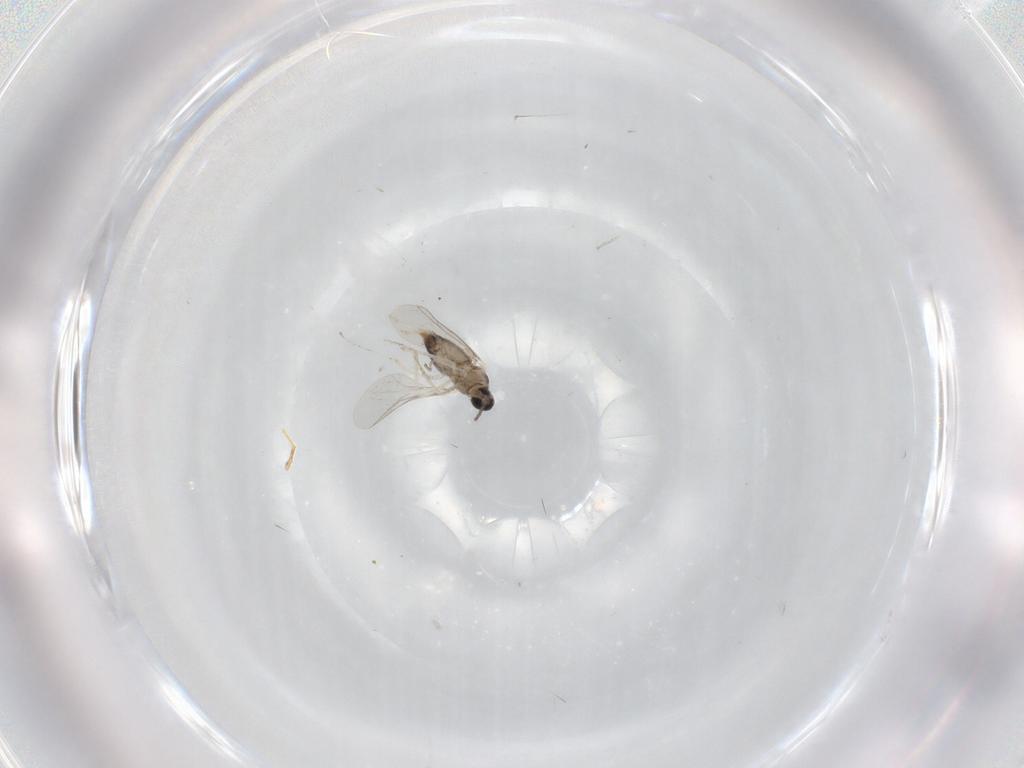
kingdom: Animalia
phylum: Arthropoda
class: Insecta
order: Diptera
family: Cecidomyiidae
